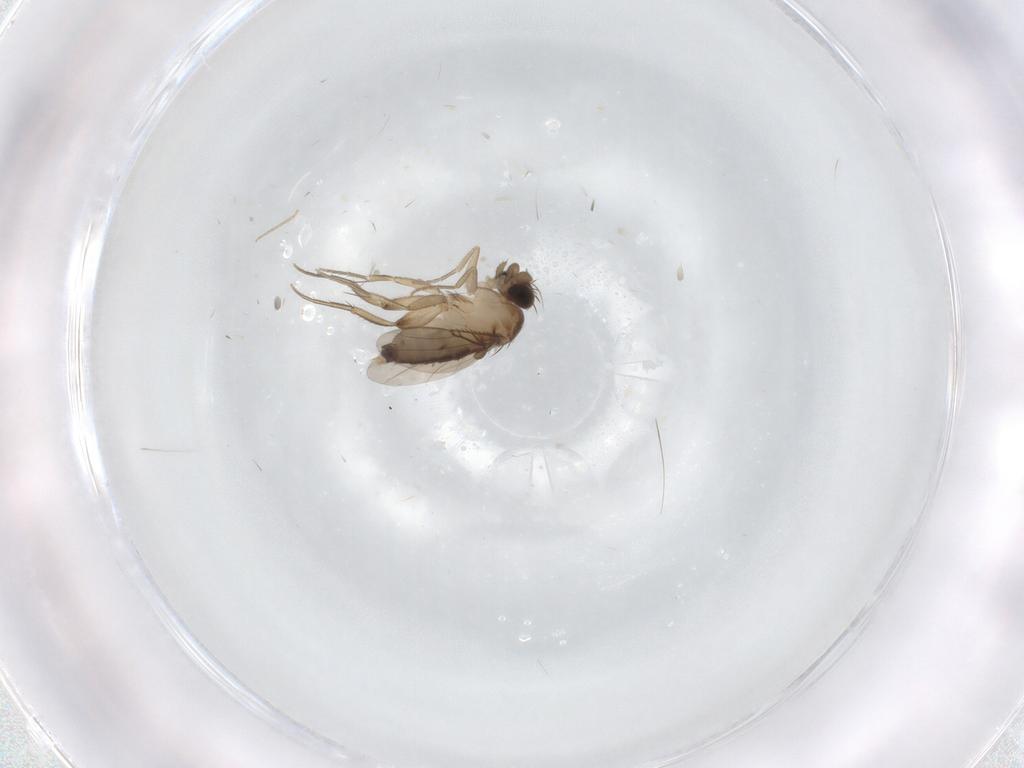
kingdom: Animalia
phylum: Arthropoda
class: Insecta
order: Diptera
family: Phoridae
